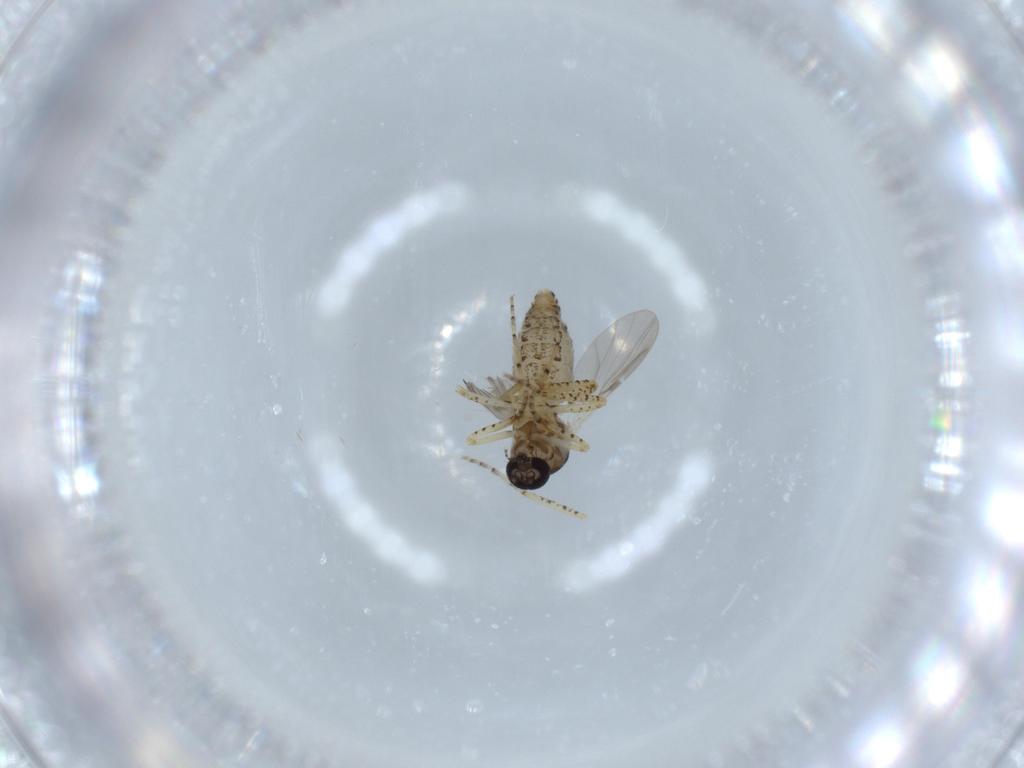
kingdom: Animalia
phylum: Arthropoda
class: Insecta
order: Diptera
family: Ceratopogonidae
